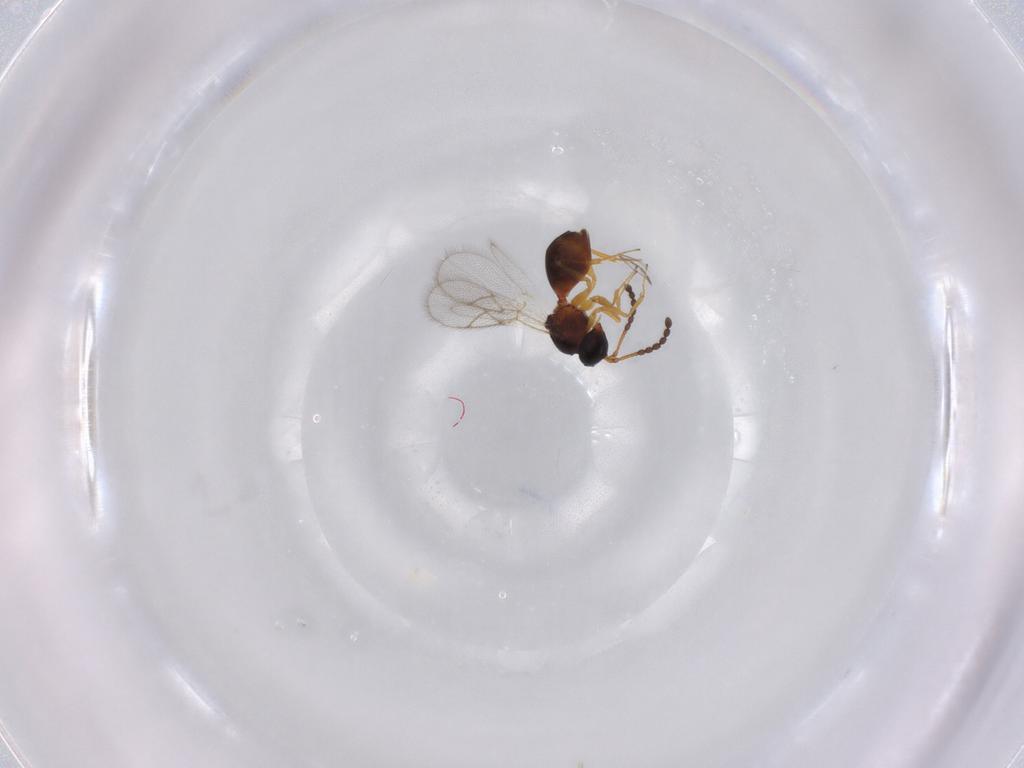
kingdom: Animalia
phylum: Arthropoda
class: Insecta
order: Hymenoptera
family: Figitidae
